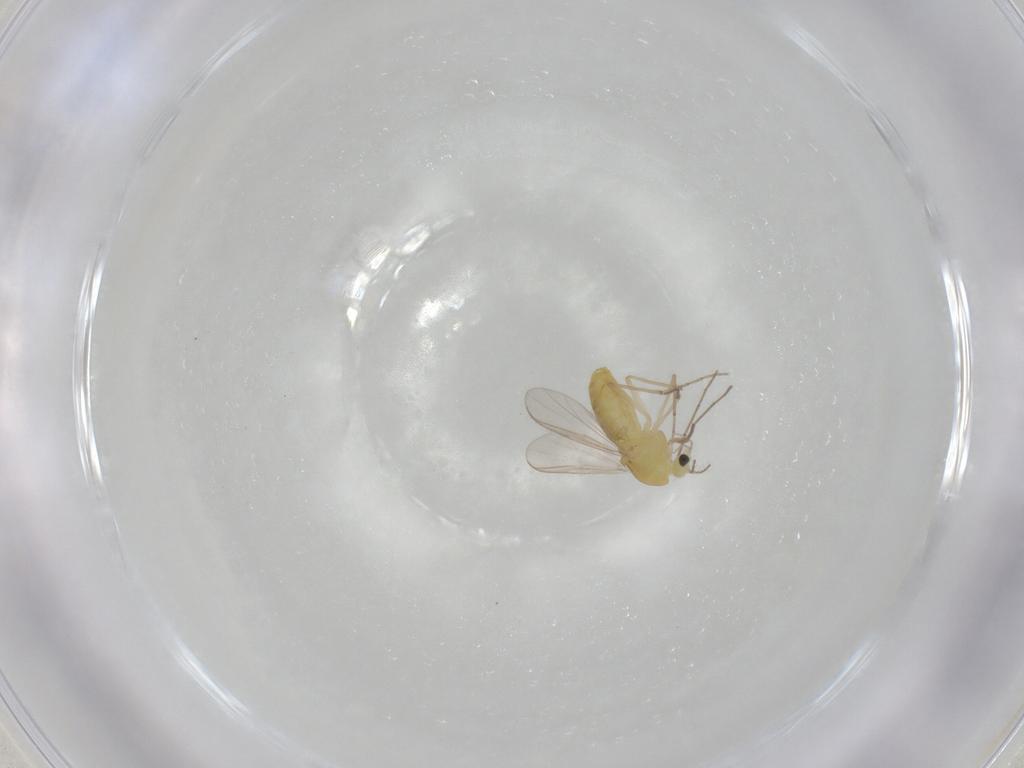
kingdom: Animalia
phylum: Arthropoda
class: Insecta
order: Diptera
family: Chironomidae
